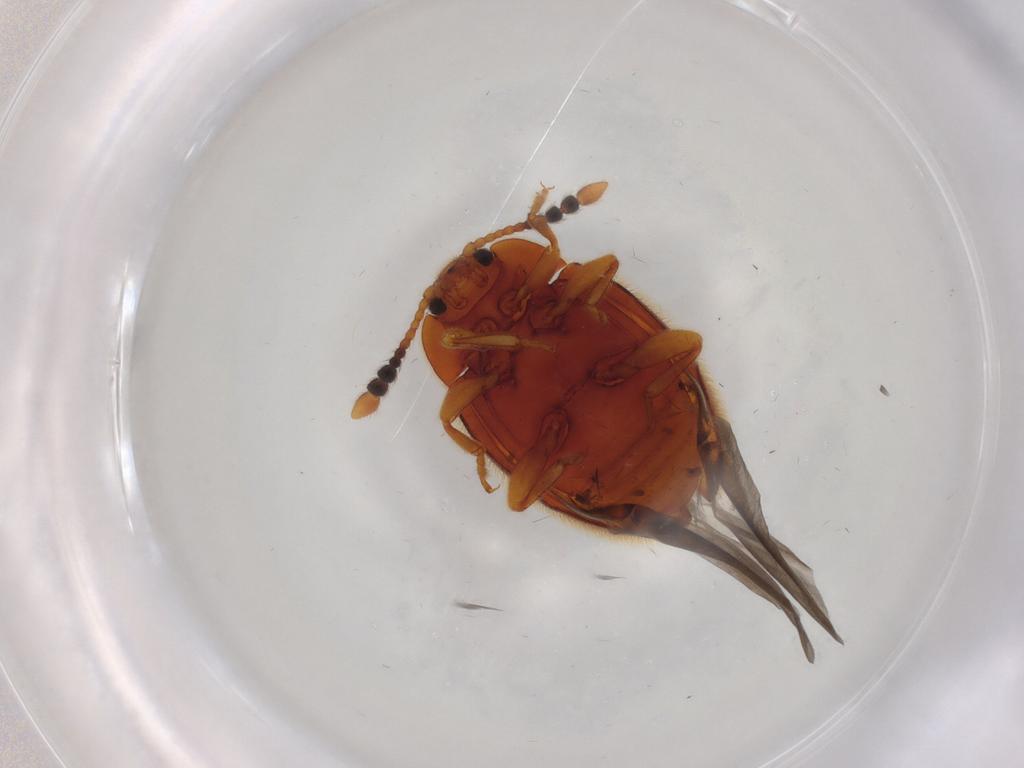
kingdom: Animalia
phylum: Arthropoda
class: Insecta
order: Coleoptera
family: Endomychidae
